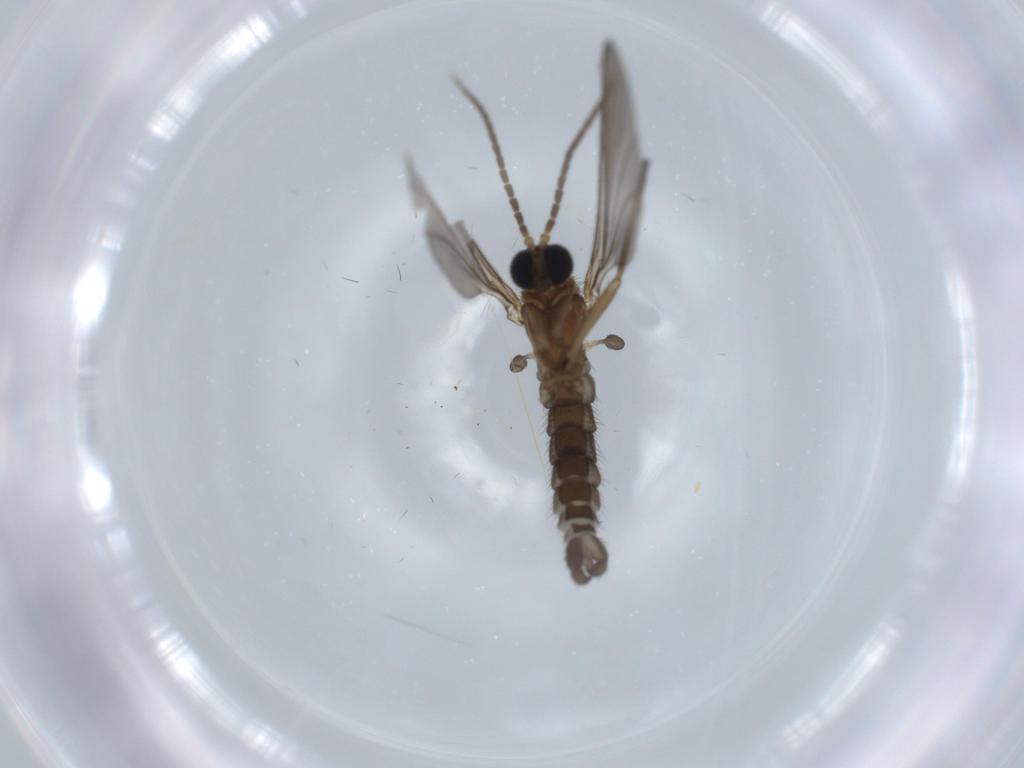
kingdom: Animalia
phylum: Arthropoda
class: Insecta
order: Diptera
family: Sciaridae
